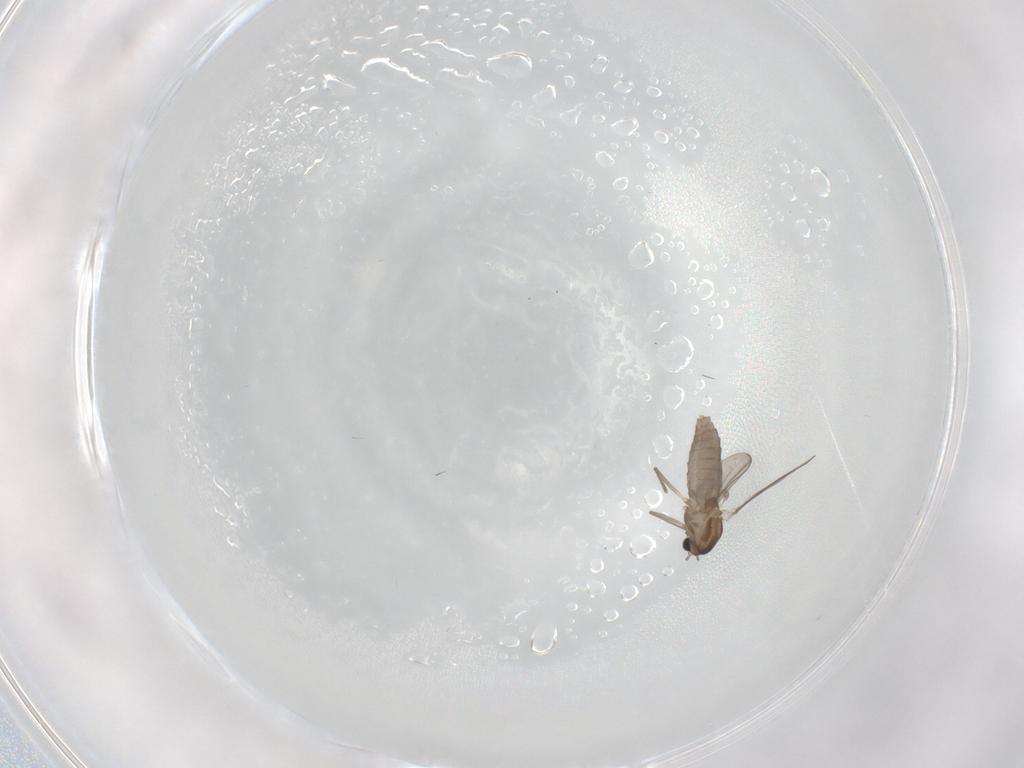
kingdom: Animalia
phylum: Arthropoda
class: Insecta
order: Diptera
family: Chironomidae
